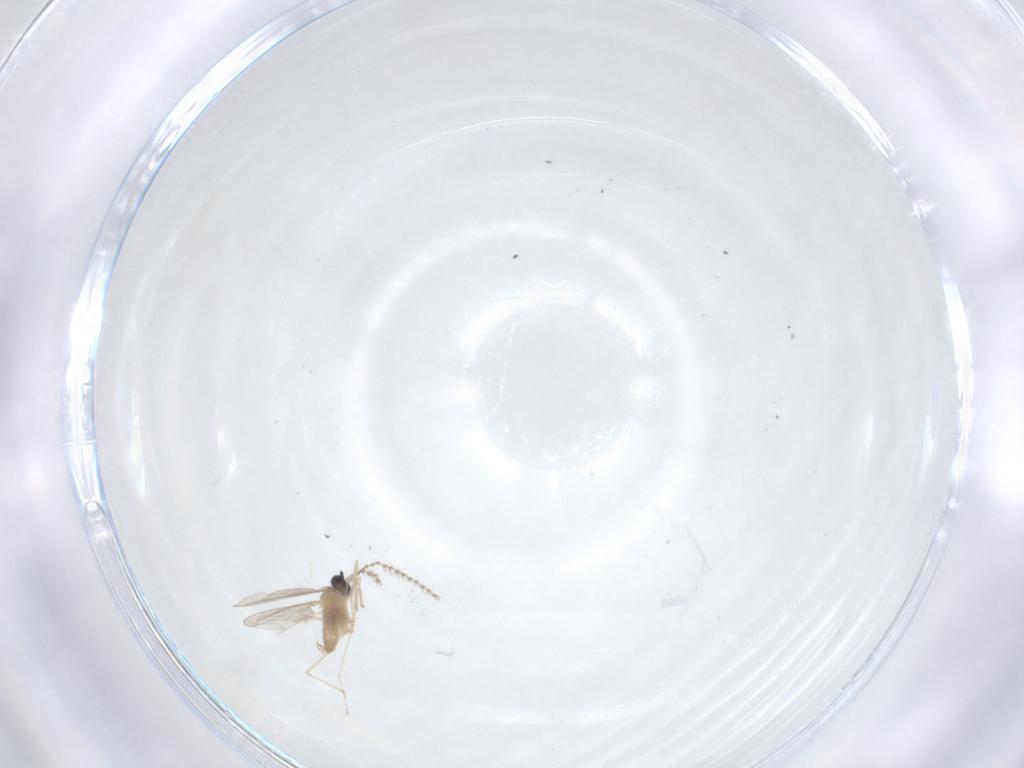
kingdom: Animalia
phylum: Arthropoda
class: Insecta
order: Diptera
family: Cecidomyiidae
